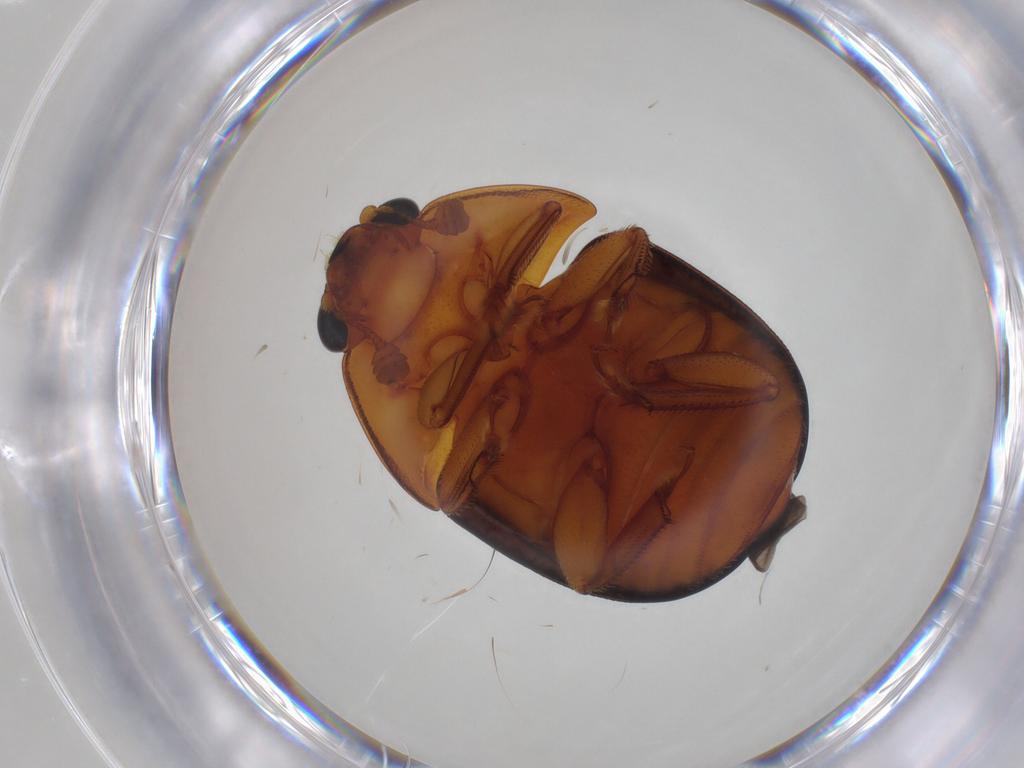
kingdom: Animalia
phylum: Arthropoda
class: Insecta
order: Coleoptera
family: Nitidulidae
